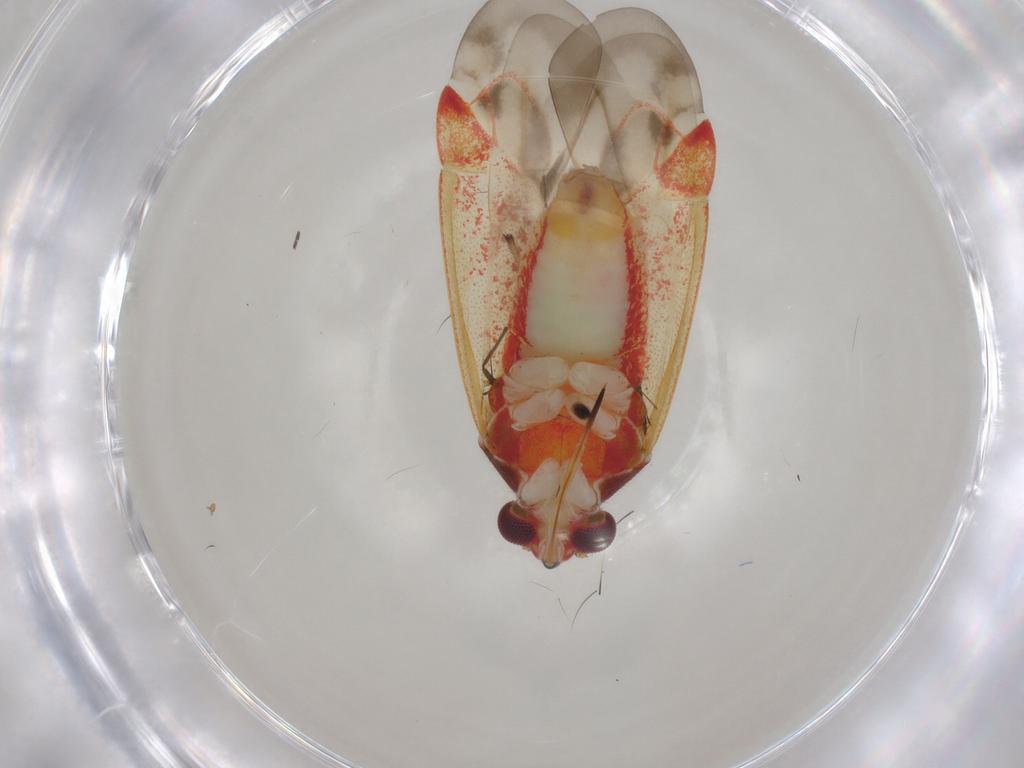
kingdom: Animalia
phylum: Arthropoda
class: Insecta
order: Hemiptera
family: Aleyrodidae
